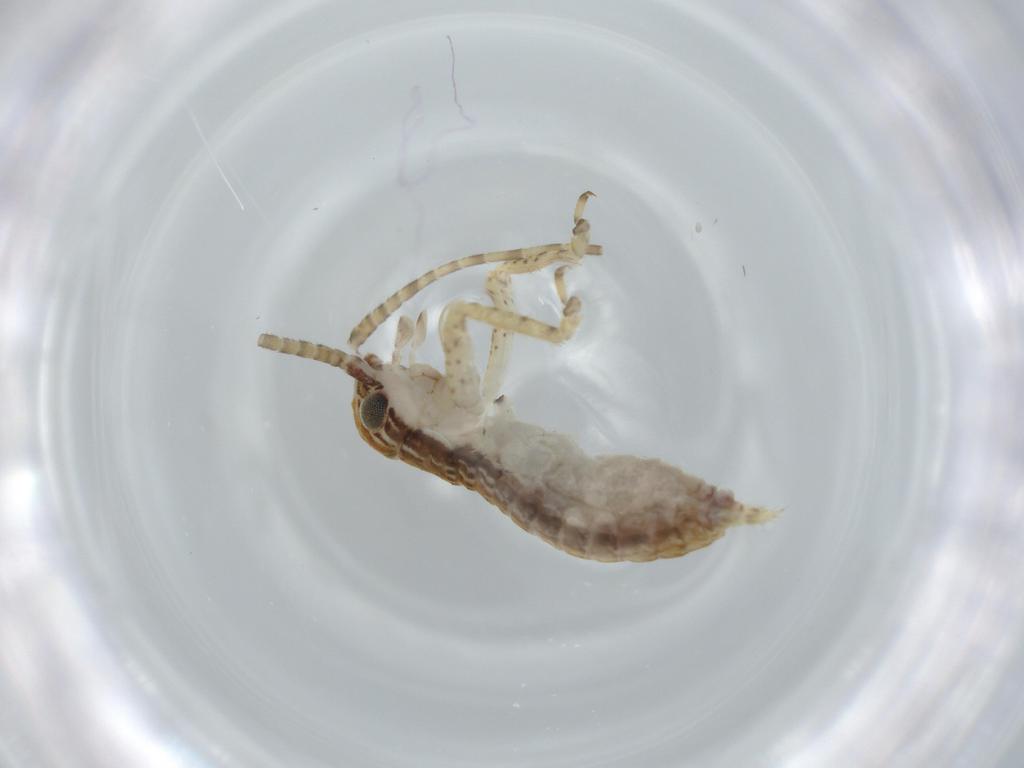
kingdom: Animalia
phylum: Arthropoda
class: Insecta
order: Orthoptera
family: Gryllidae
